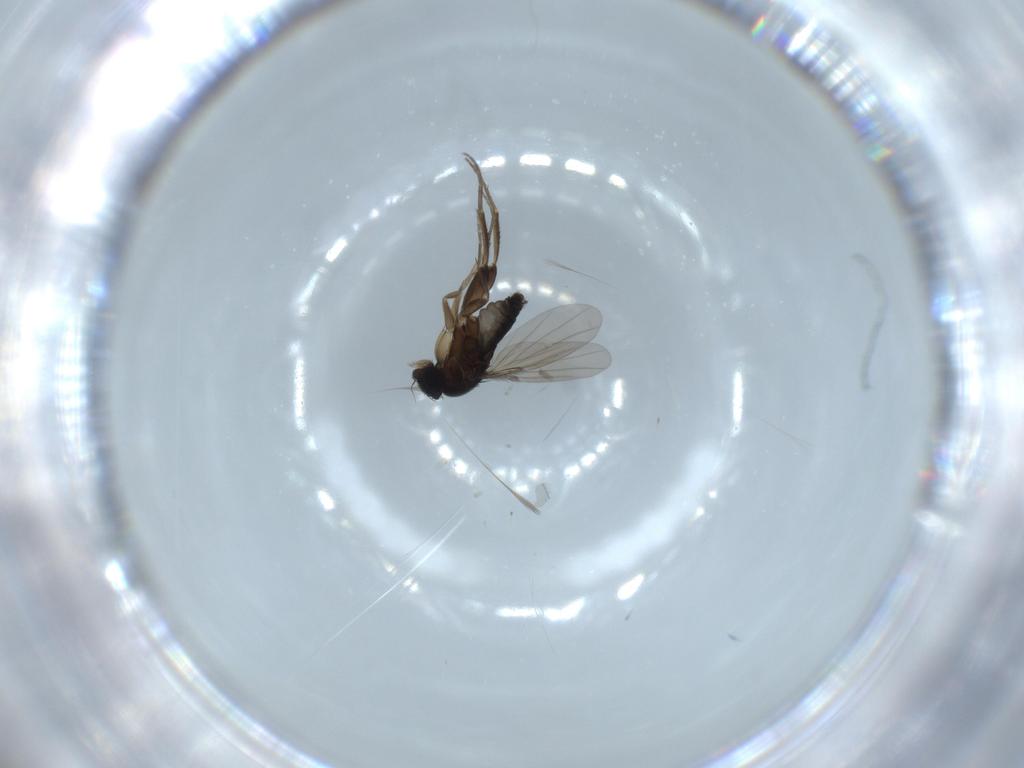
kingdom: Animalia
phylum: Arthropoda
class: Insecta
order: Diptera
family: Phoridae
